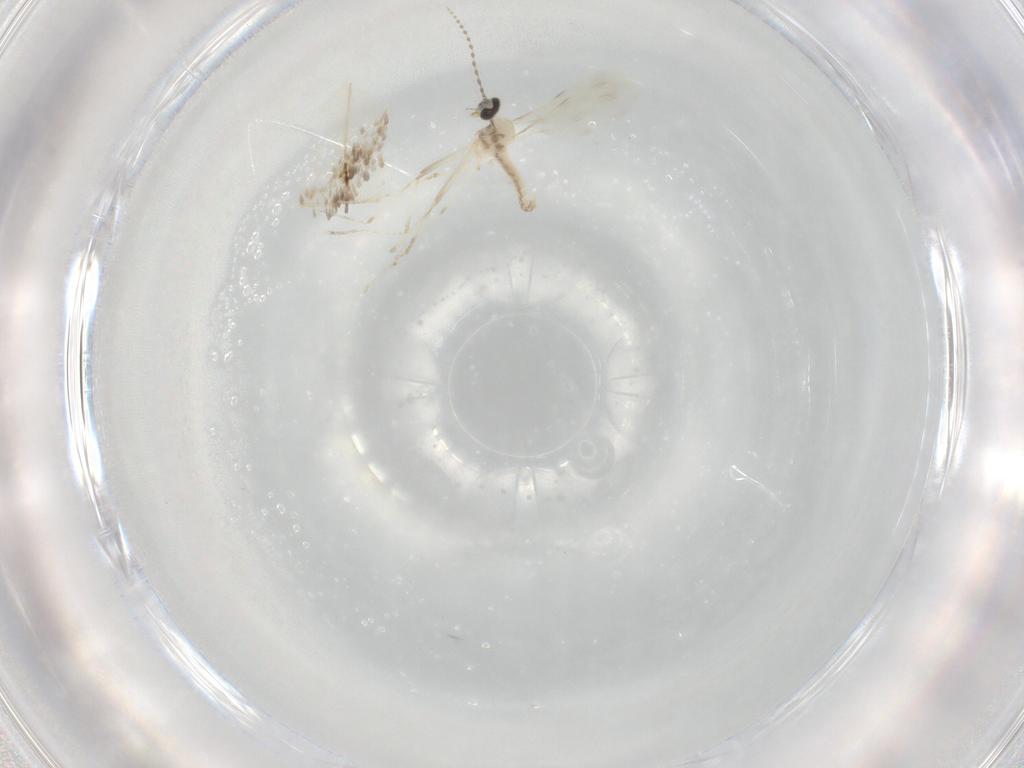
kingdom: Animalia
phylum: Arthropoda
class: Insecta
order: Diptera
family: Cecidomyiidae
